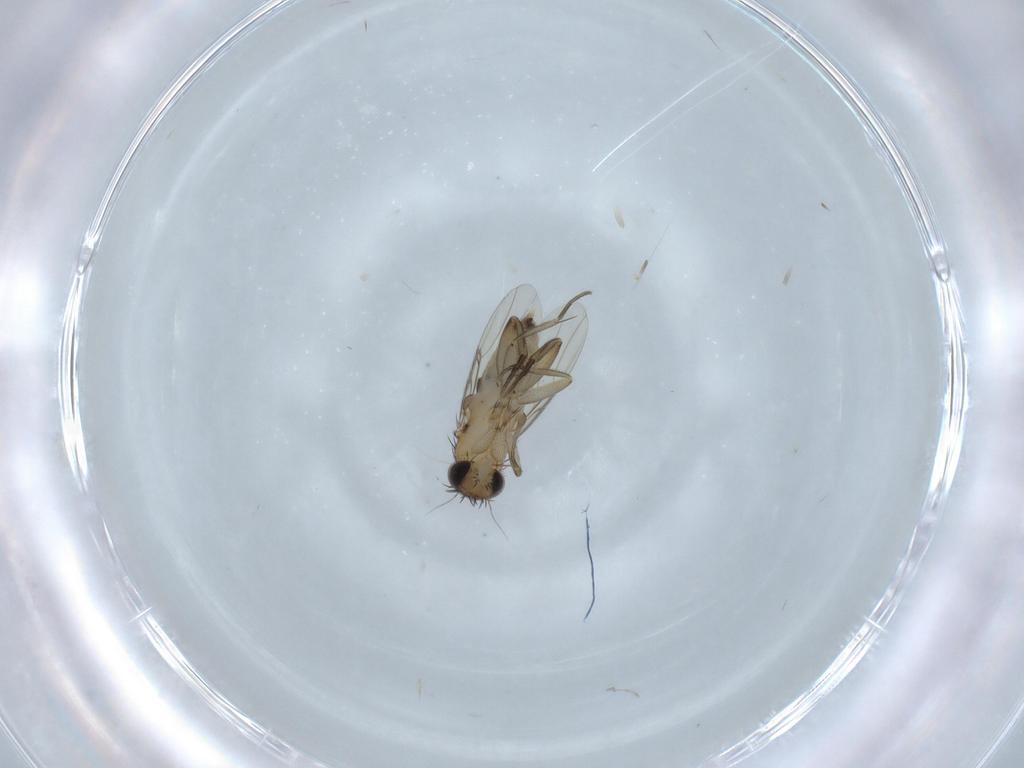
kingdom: Animalia
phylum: Arthropoda
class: Insecta
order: Diptera
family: Phoridae
